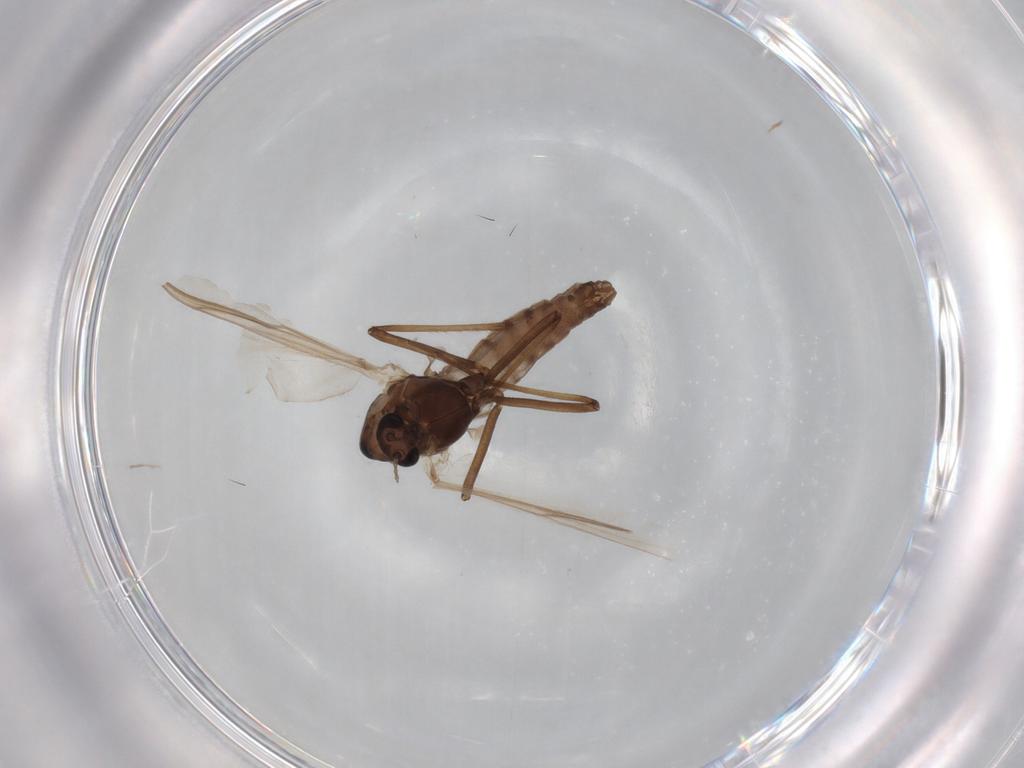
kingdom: Animalia
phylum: Arthropoda
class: Insecta
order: Diptera
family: Chironomidae
